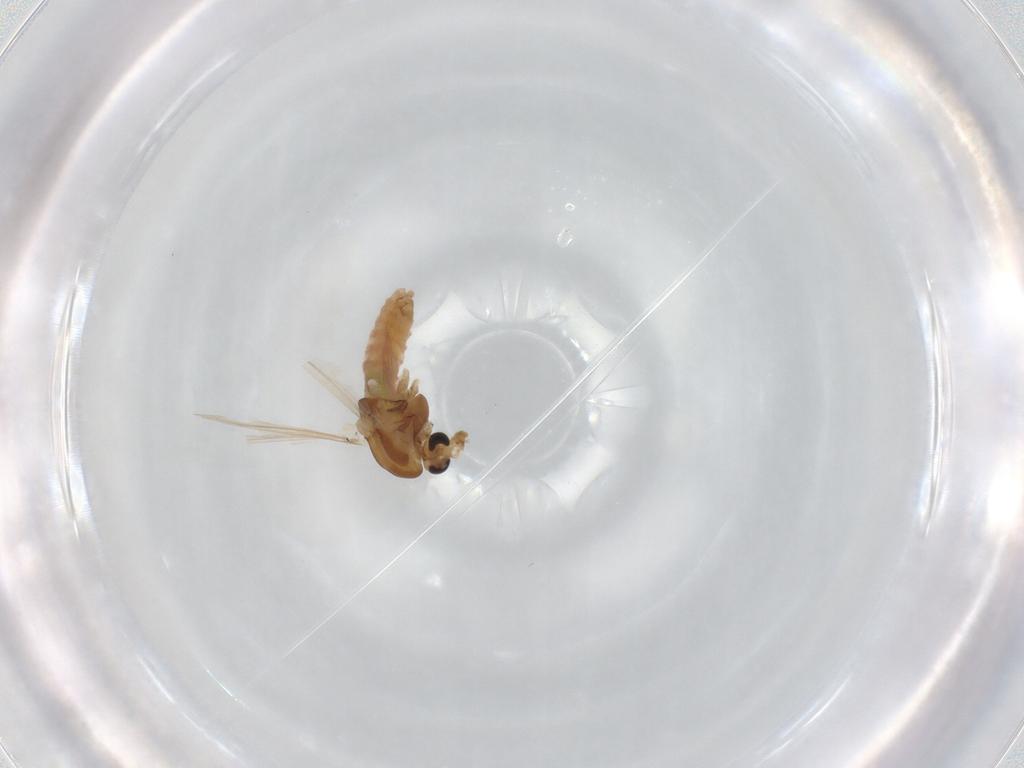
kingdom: Animalia
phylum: Arthropoda
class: Insecta
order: Diptera
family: Chironomidae
